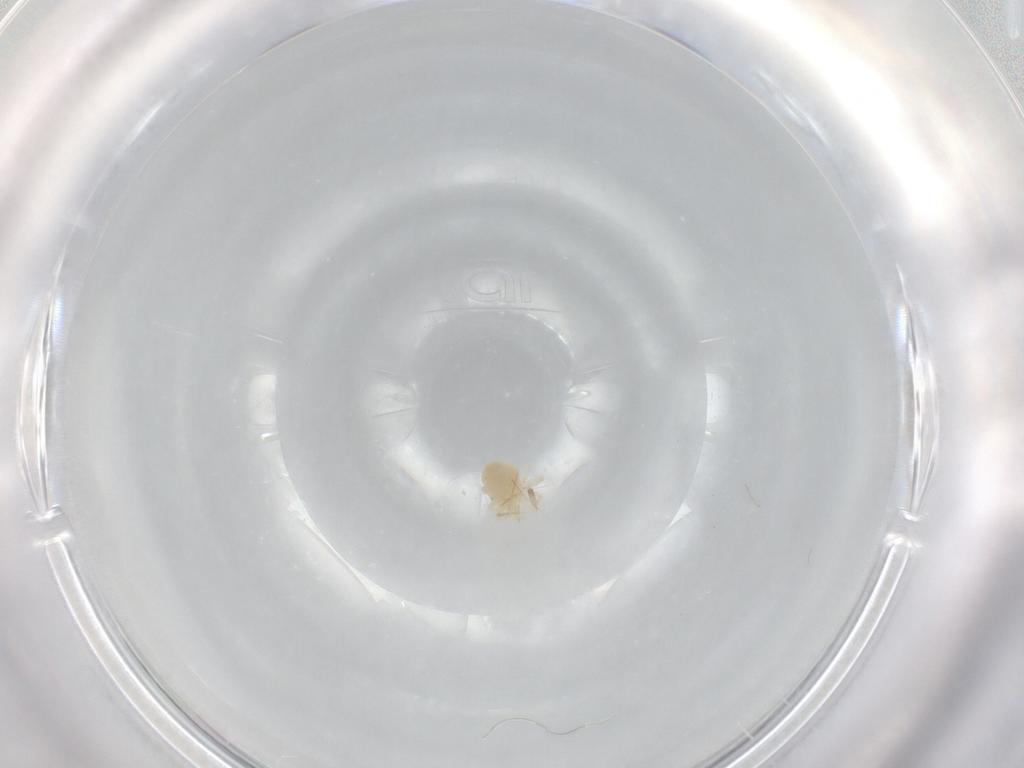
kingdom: Animalia
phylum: Arthropoda
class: Arachnida
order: Trombidiformes
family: Anystidae
